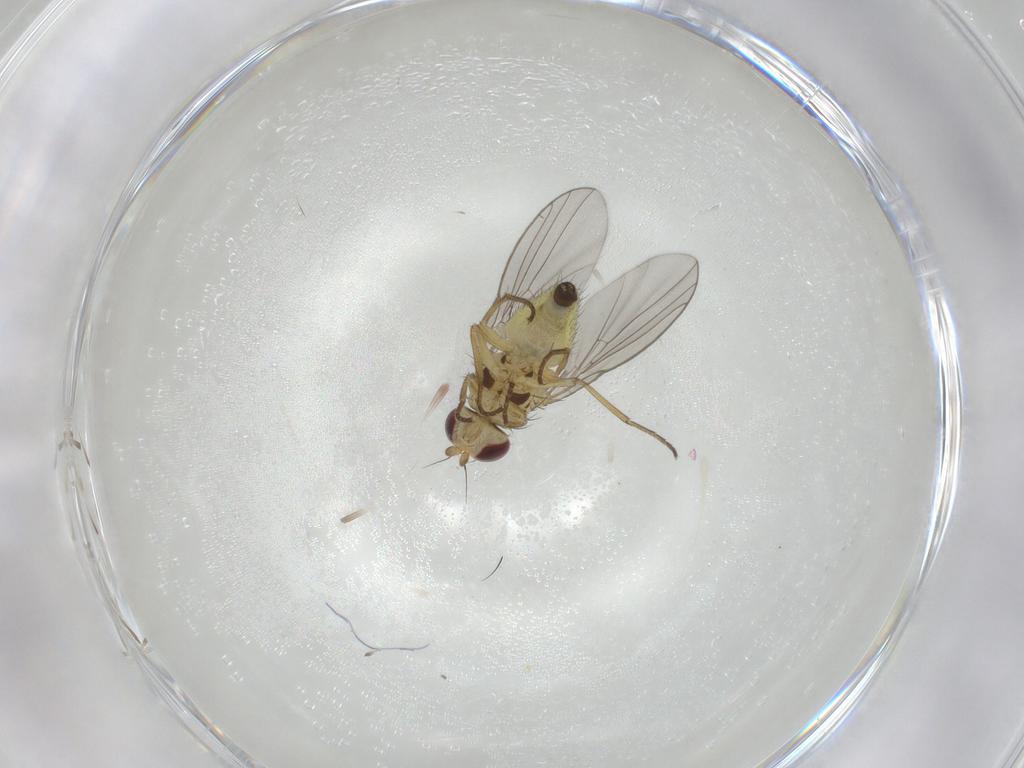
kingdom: Animalia
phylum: Arthropoda
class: Insecta
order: Diptera
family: Agromyzidae
